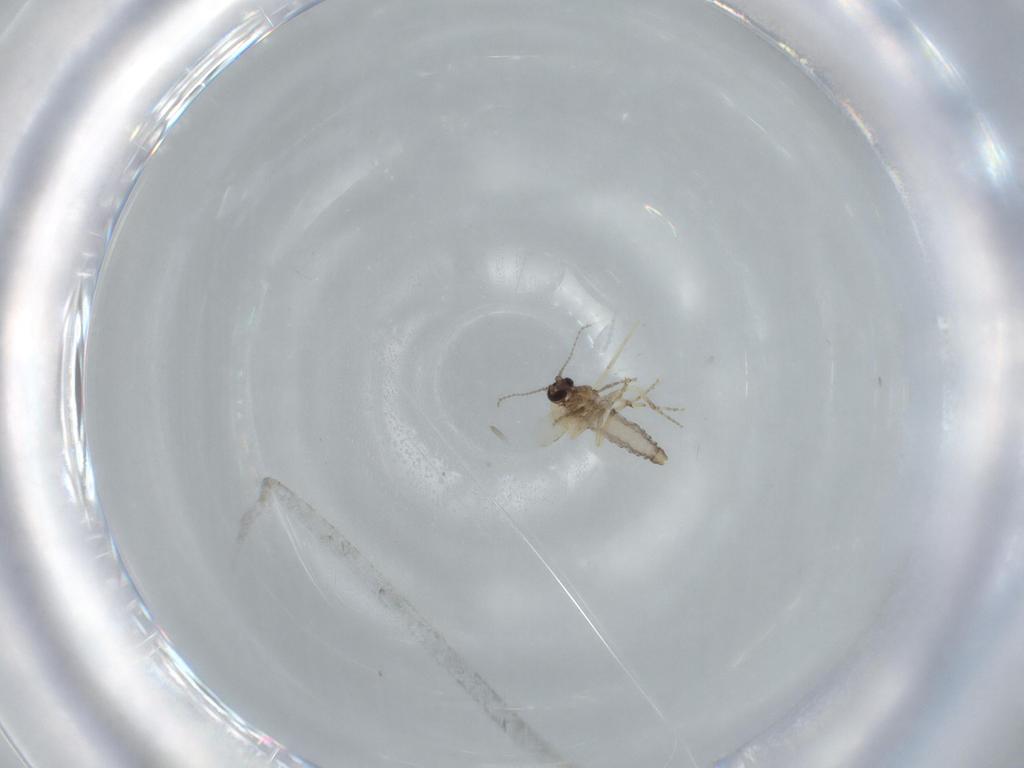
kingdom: Animalia
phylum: Arthropoda
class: Insecta
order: Diptera
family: Ceratopogonidae
